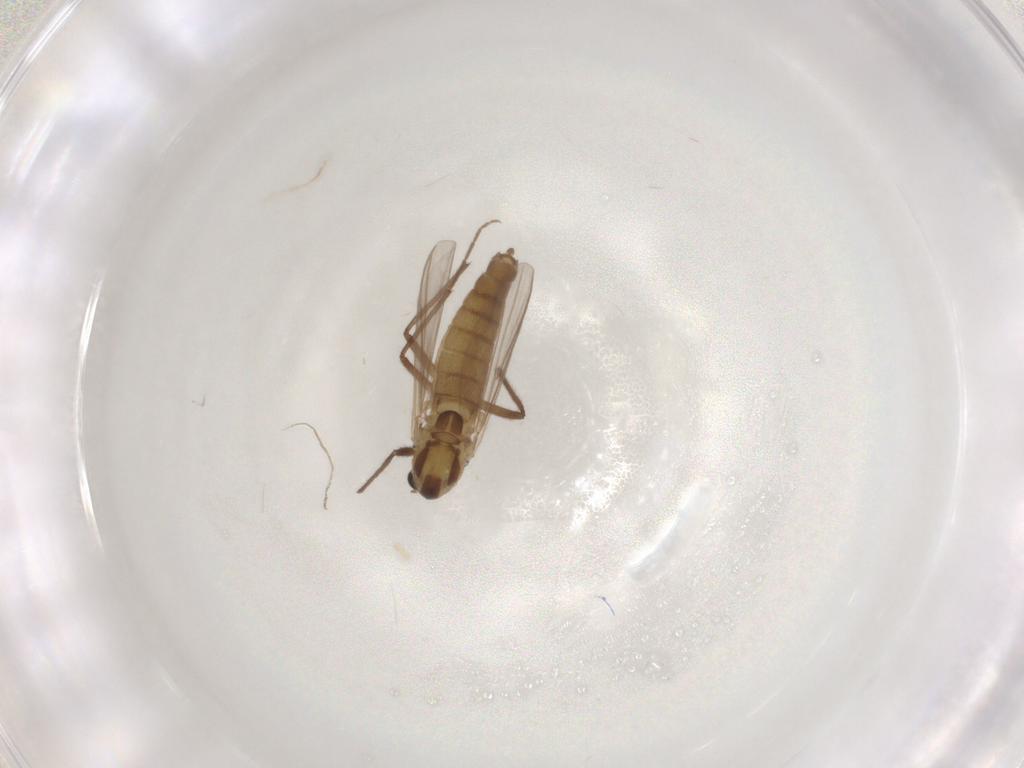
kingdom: Animalia
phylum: Arthropoda
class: Insecta
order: Diptera
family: Chironomidae
